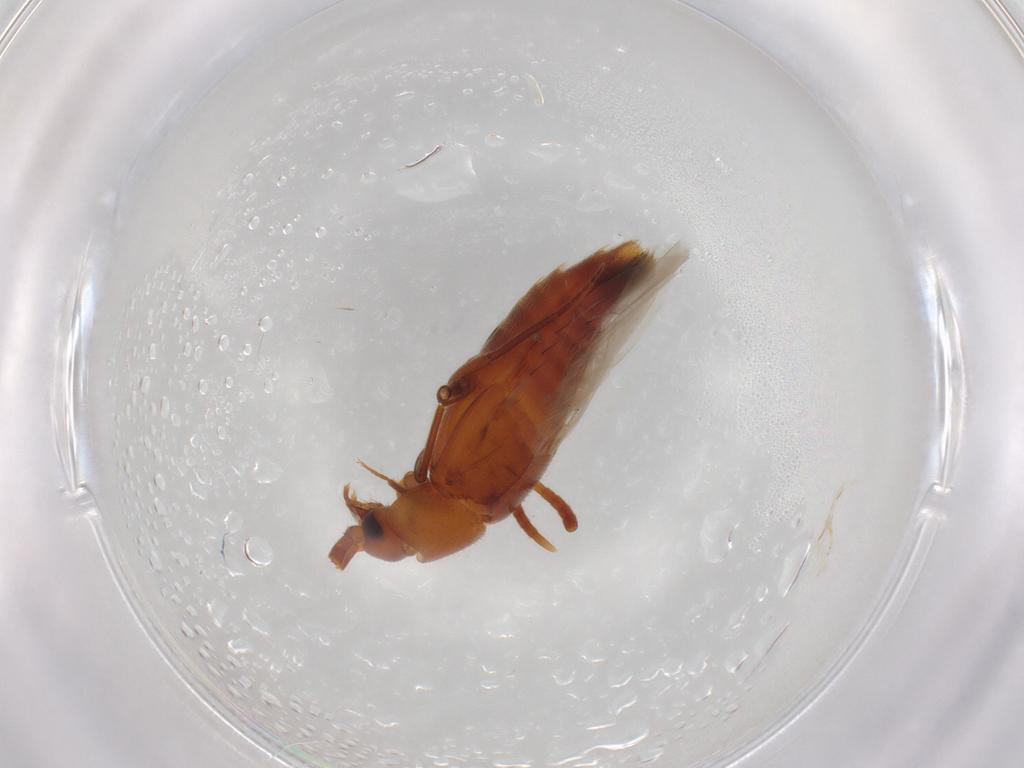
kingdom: Animalia
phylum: Arthropoda
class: Insecta
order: Coleoptera
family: Staphylinidae
